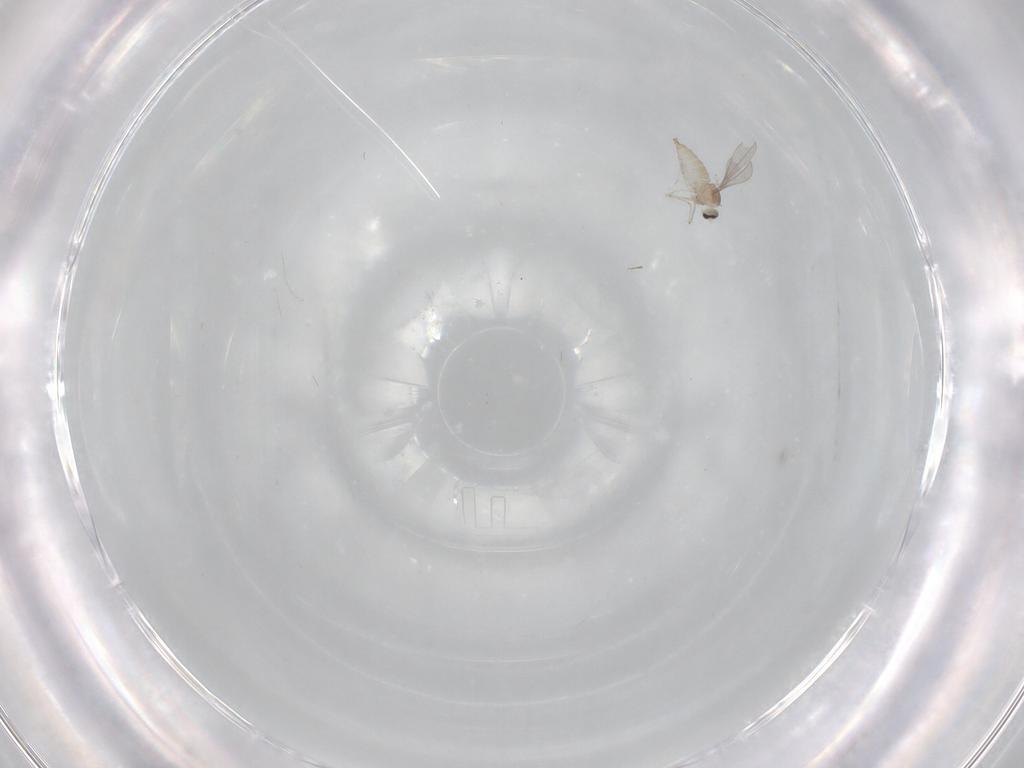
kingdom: Animalia
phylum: Arthropoda
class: Insecta
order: Diptera
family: Cecidomyiidae
